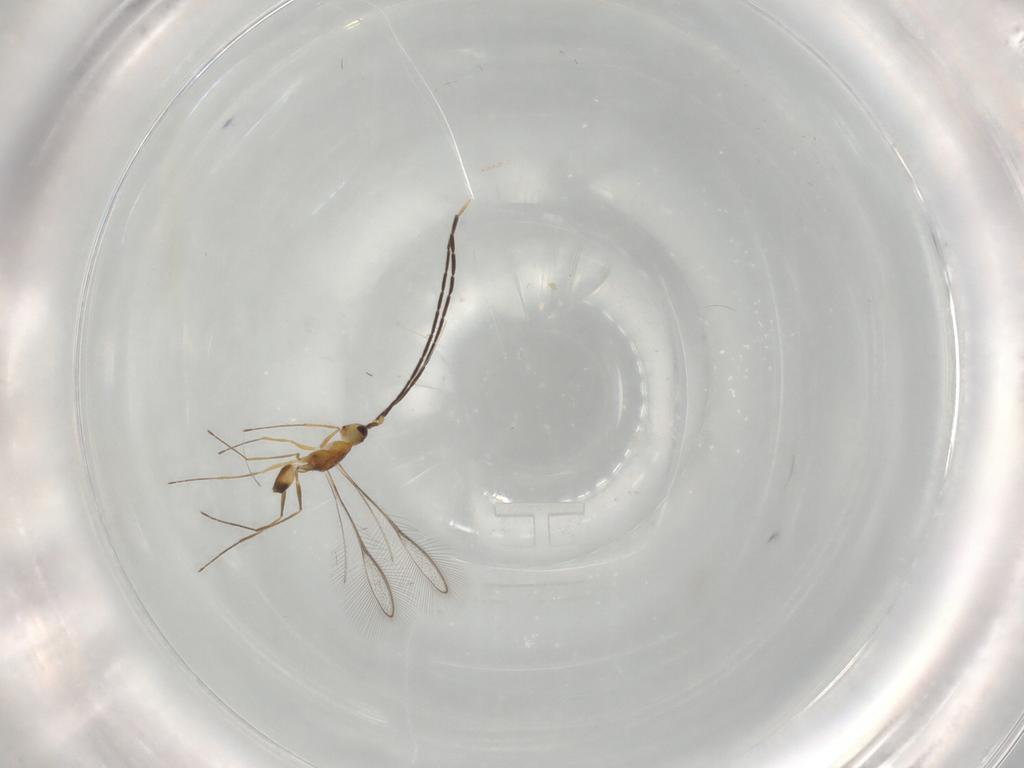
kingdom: Animalia
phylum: Arthropoda
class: Insecta
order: Hymenoptera
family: Mymaridae
